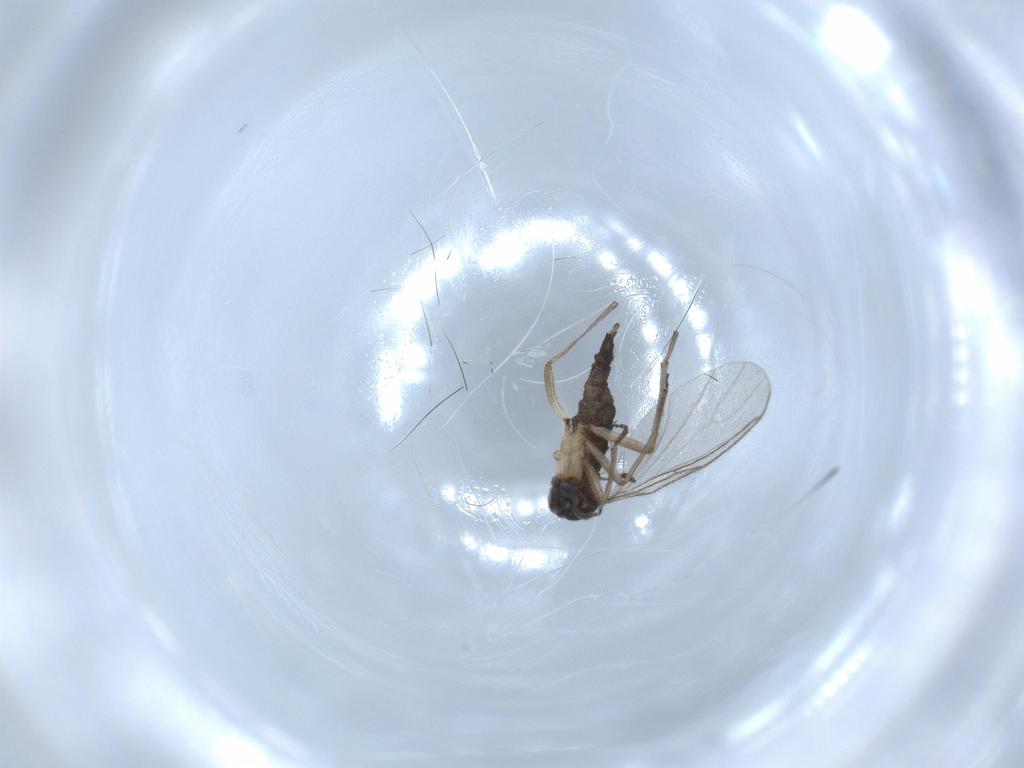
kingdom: Animalia
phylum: Arthropoda
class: Insecta
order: Diptera
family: Sciaridae
